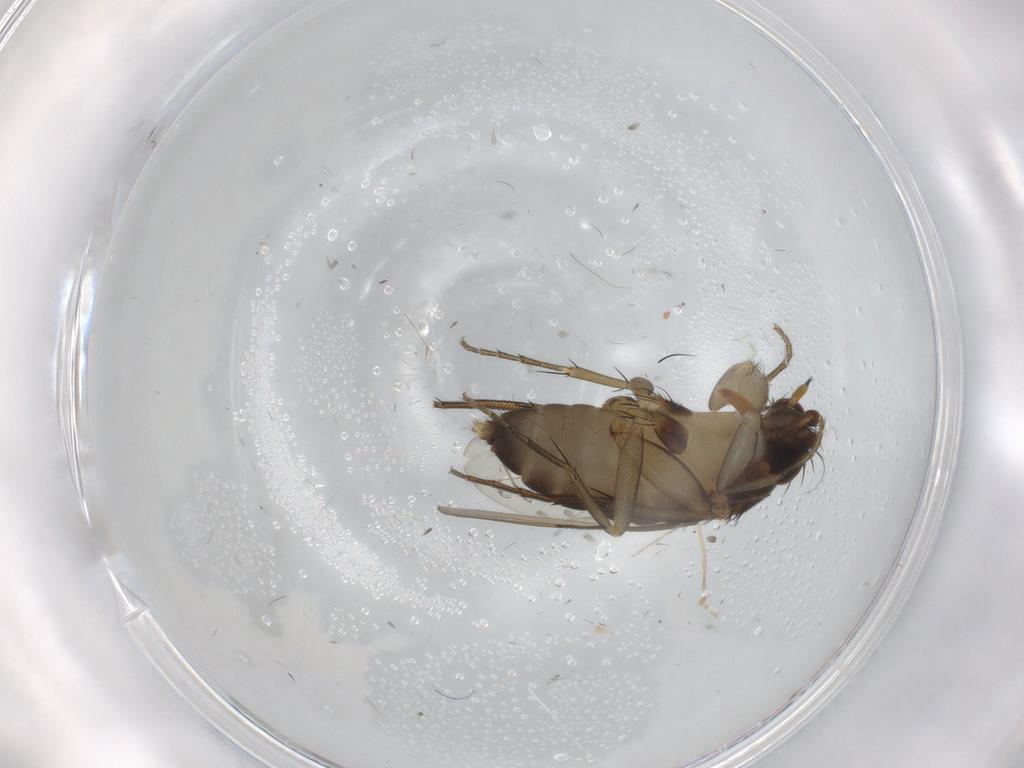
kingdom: Animalia
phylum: Arthropoda
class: Insecta
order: Diptera
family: Phoridae
